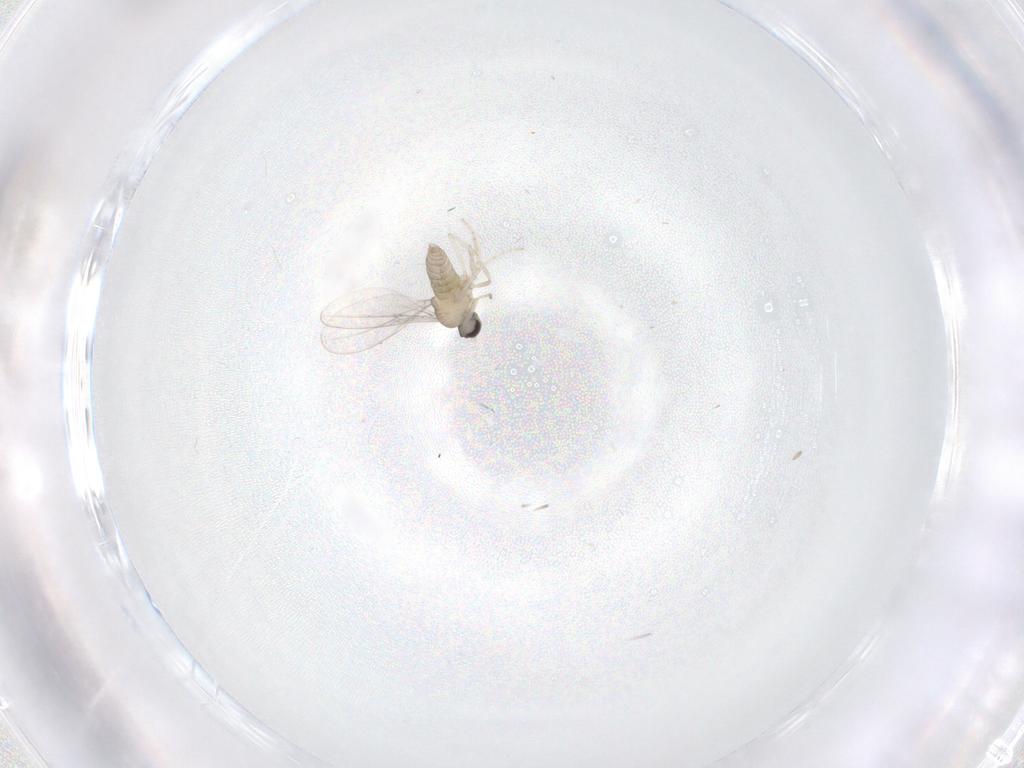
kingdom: Animalia
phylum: Arthropoda
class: Insecta
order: Diptera
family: Cecidomyiidae
